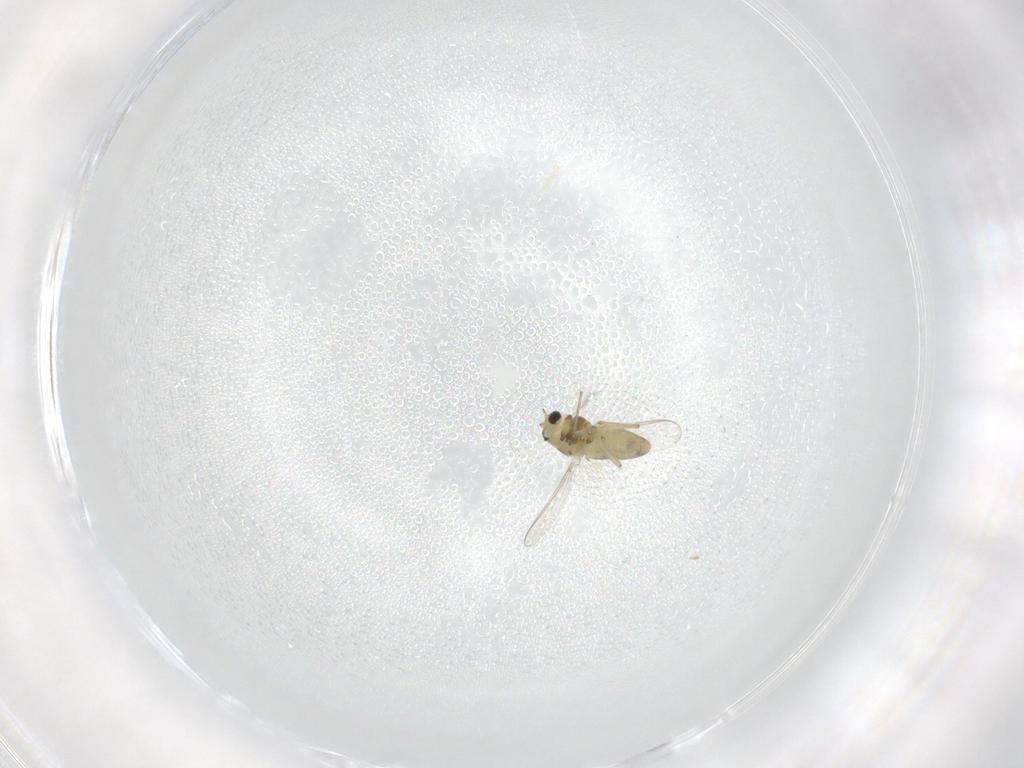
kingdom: Animalia
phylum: Arthropoda
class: Insecta
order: Diptera
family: Chironomidae
